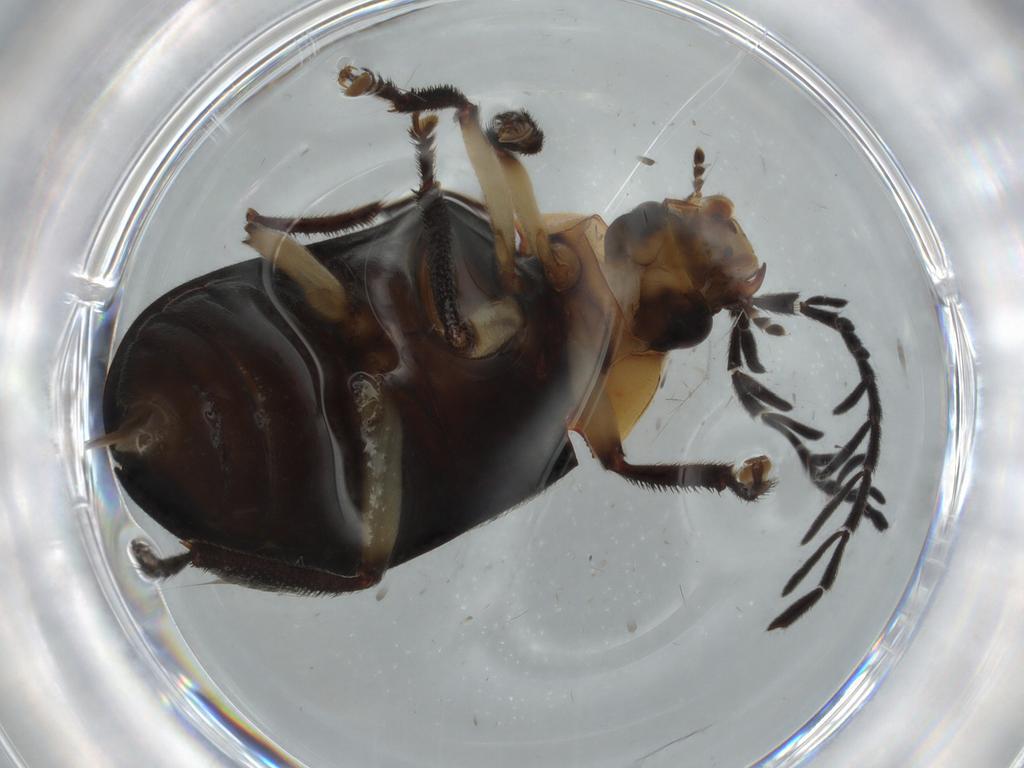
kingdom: Animalia
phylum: Arthropoda
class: Insecta
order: Coleoptera
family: Ptilodactylidae
